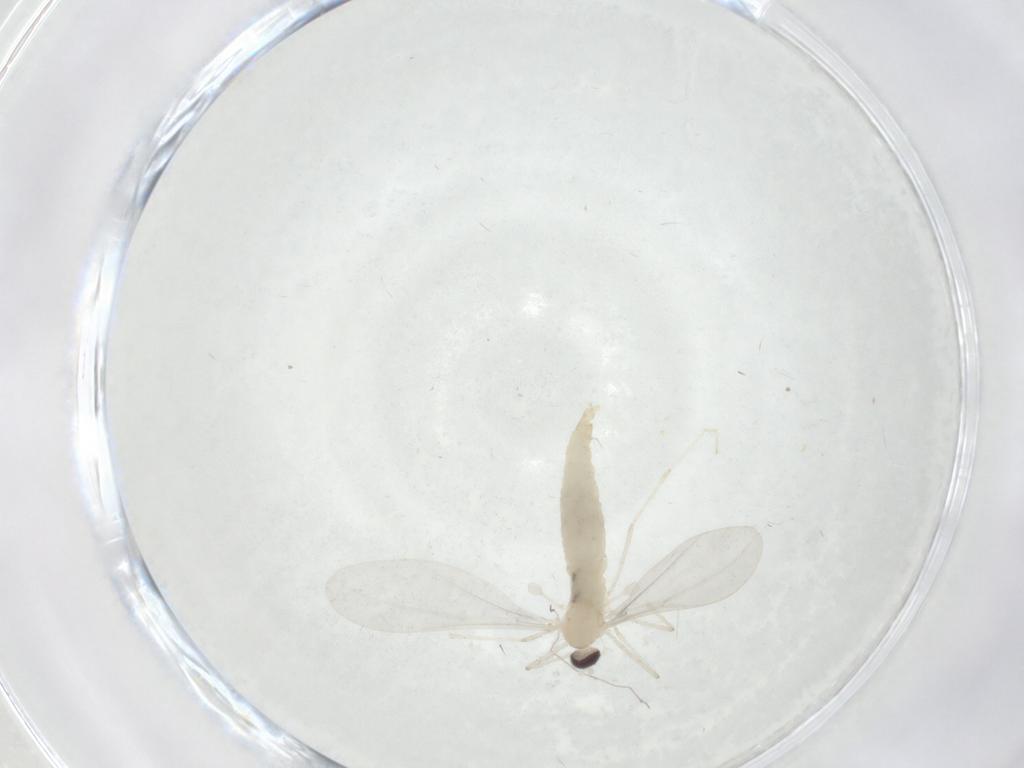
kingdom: Animalia
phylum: Arthropoda
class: Insecta
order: Diptera
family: Cecidomyiidae
